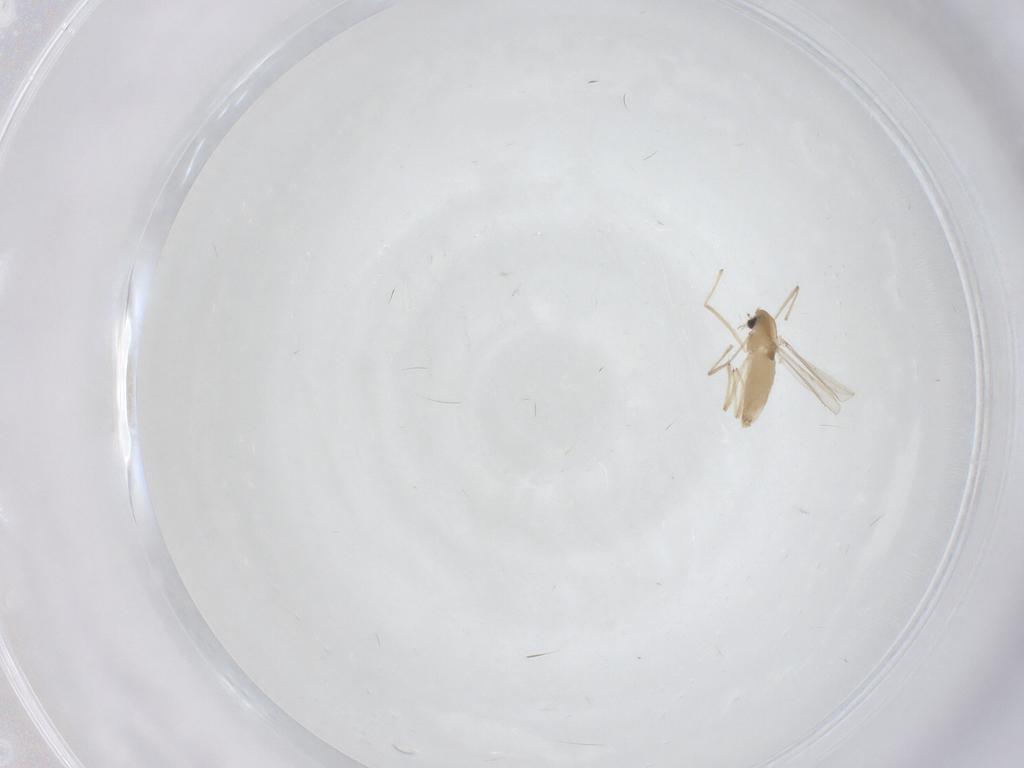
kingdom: Animalia
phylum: Arthropoda
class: Insecta
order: Diptera
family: Chironomidae
